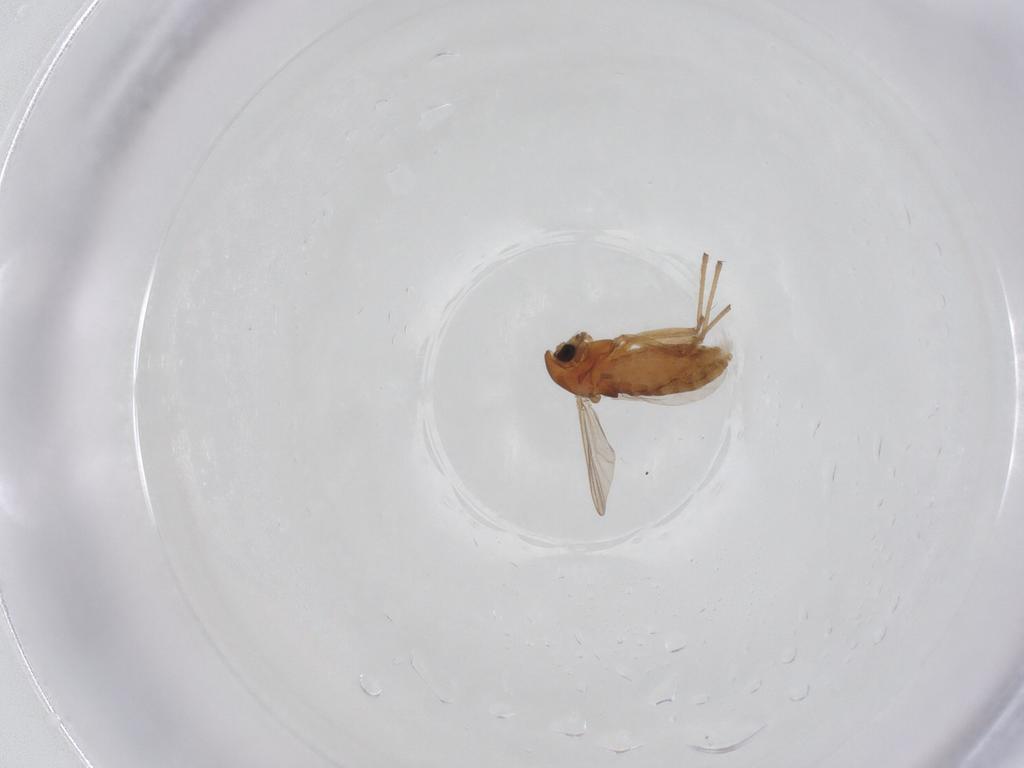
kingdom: Animalia
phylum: Arthropoda
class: Insecta
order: Diptera
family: Chironomidae
